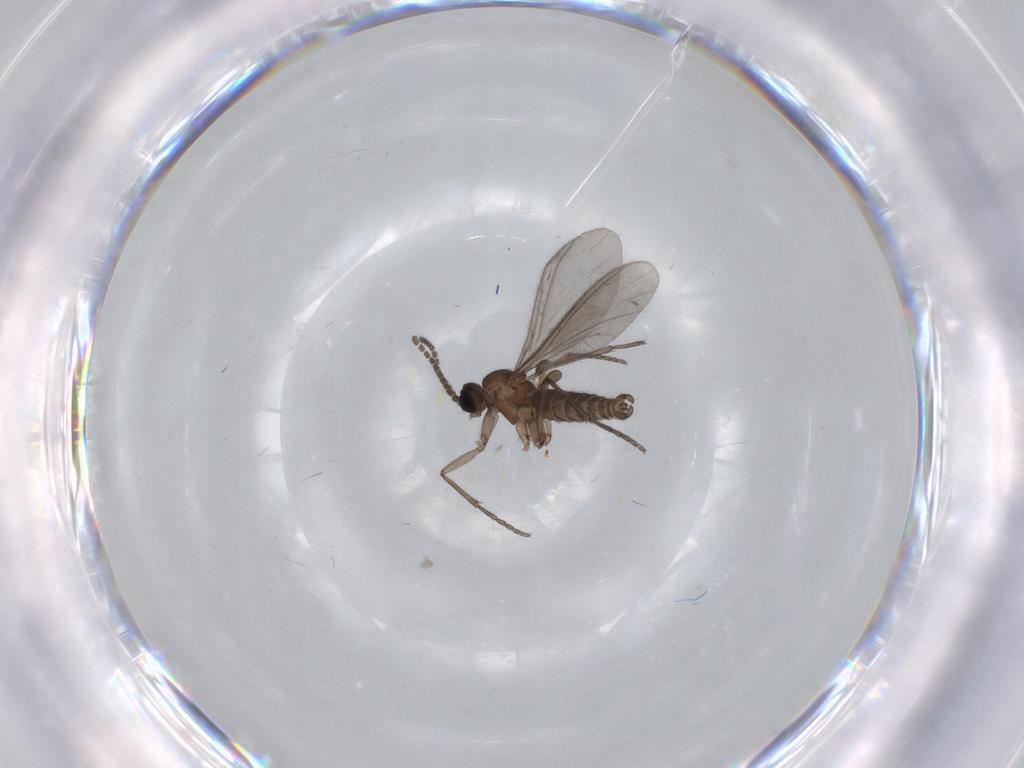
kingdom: Animalia
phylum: Arthropoda
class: Insecta
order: Diptera
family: Sciaridae
